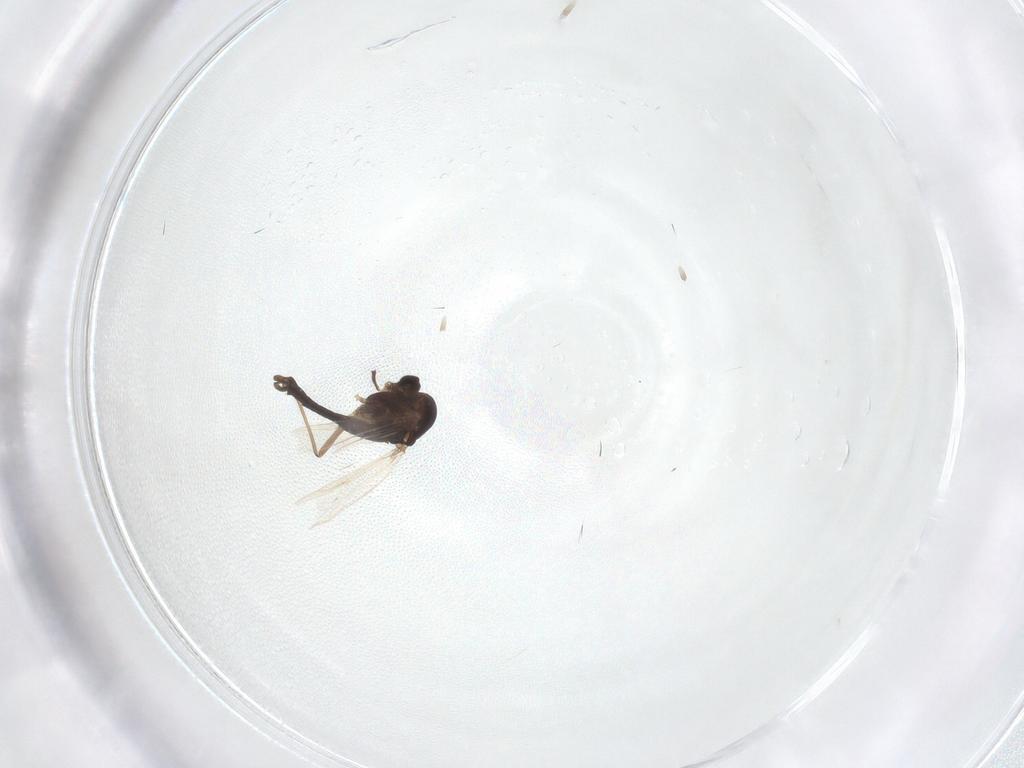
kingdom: Animalia
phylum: Arthropoda
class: Insecta
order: Diptera
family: Chironomidae
